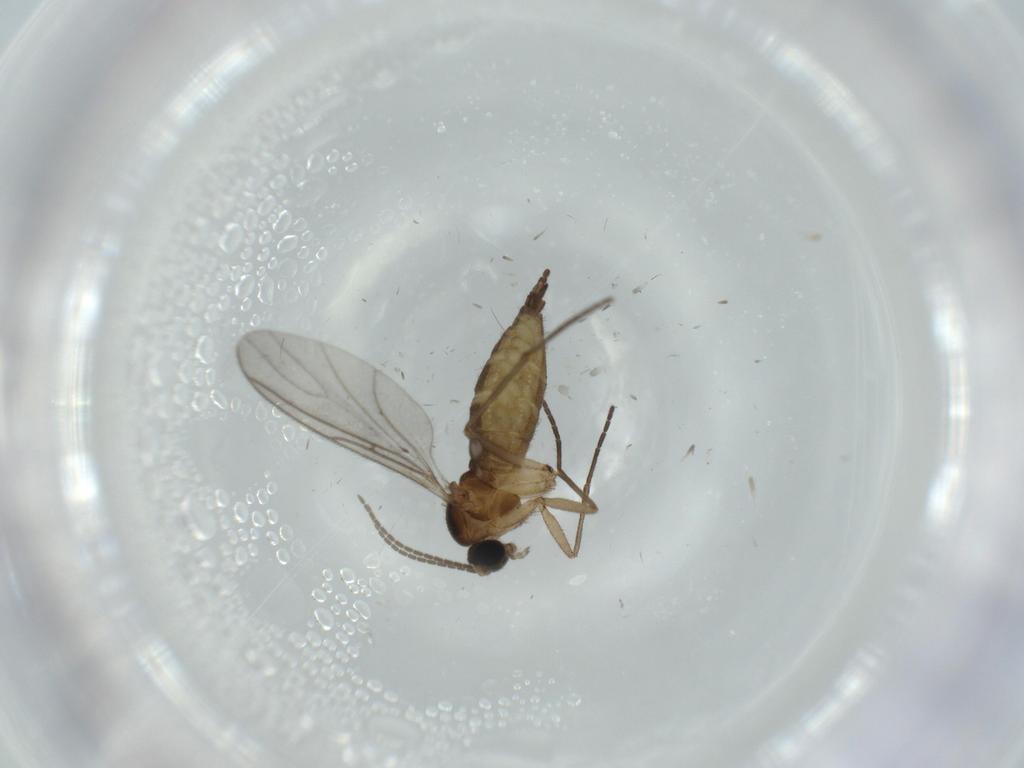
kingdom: Animalia
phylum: Arthropoda
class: Insecta
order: Diptera
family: Sciaridae
